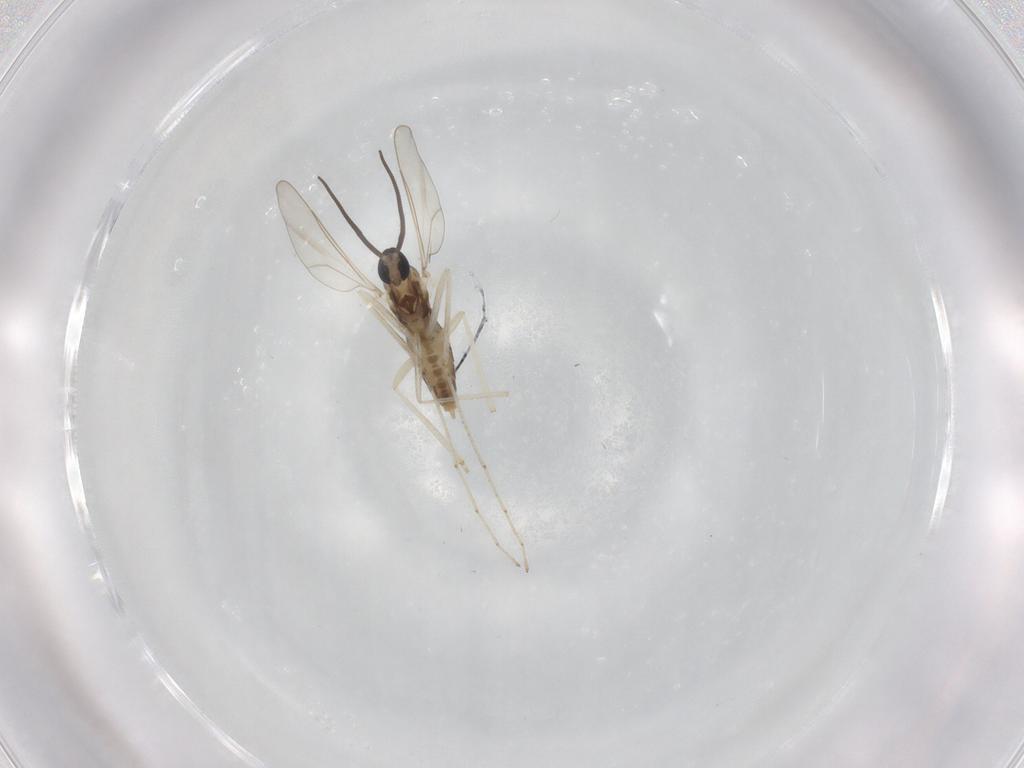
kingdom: Animalia
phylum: Arthropoda
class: Insecta
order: Diptera
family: Cecidomyiidae
